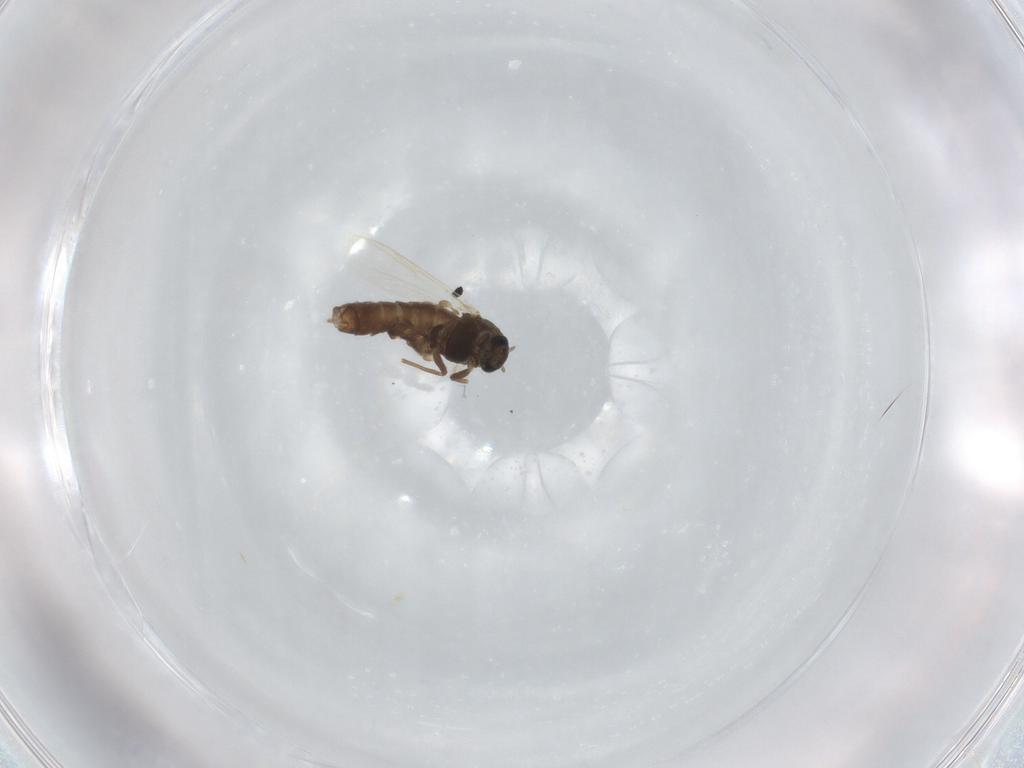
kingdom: Animalia
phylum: Arthropoda
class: Insecta
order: Diptera
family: Chironomidae
